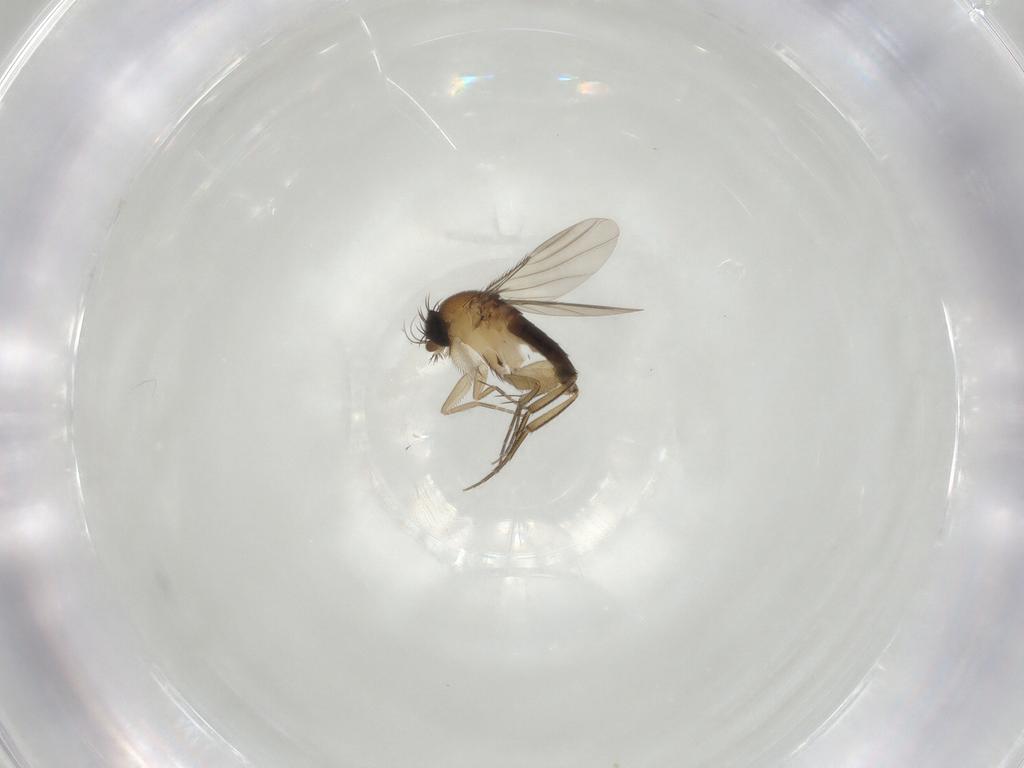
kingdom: Animalia
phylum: Arthropoda
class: Insecta
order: Diptera
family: Phoridae
